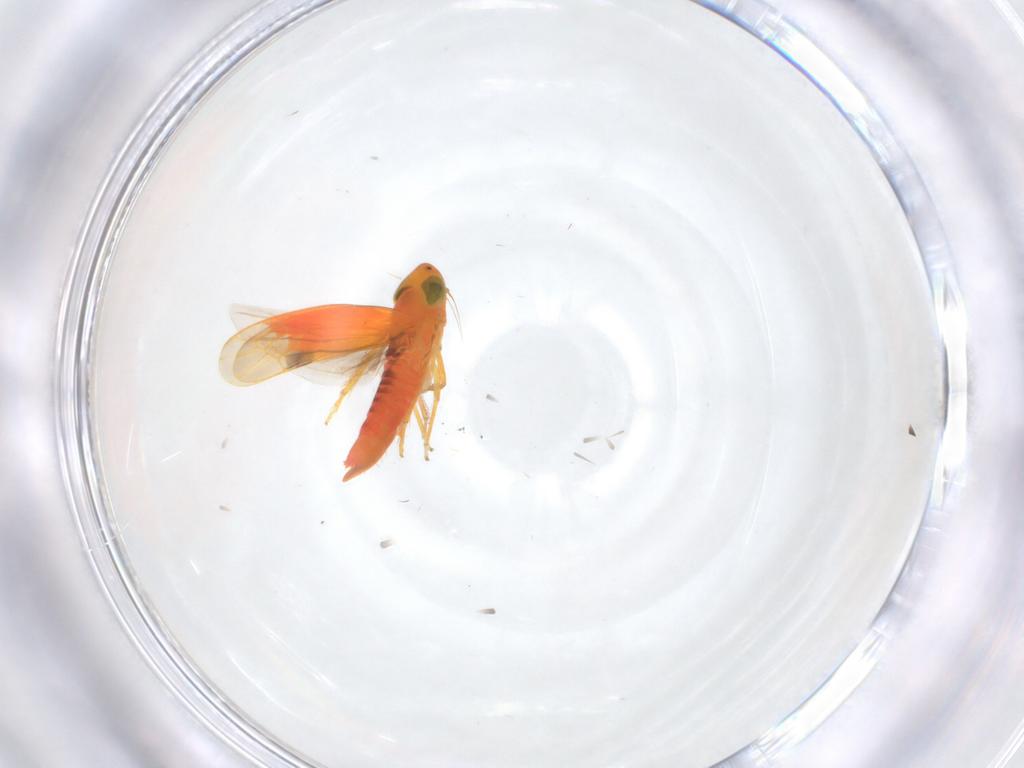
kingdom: Animalia
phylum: Arthropoda
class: Insecta
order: Hemiptera
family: Cicadellidae
